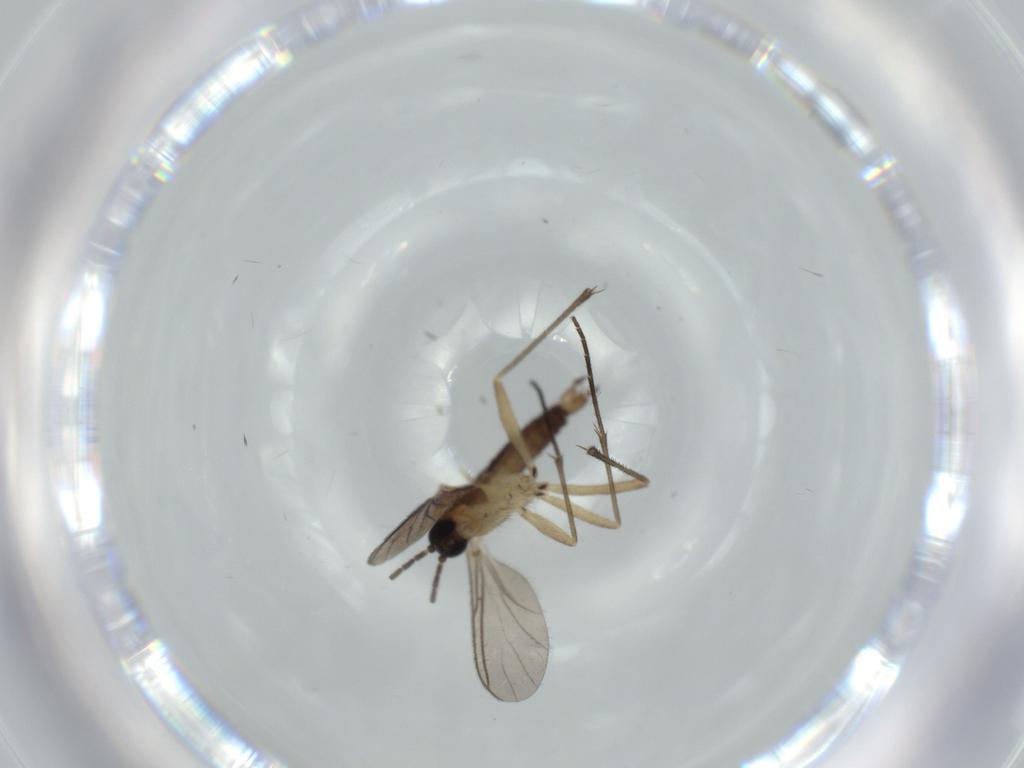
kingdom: Animalia
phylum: Arthropoda
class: Insecta
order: Diptera
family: Sciaridae
